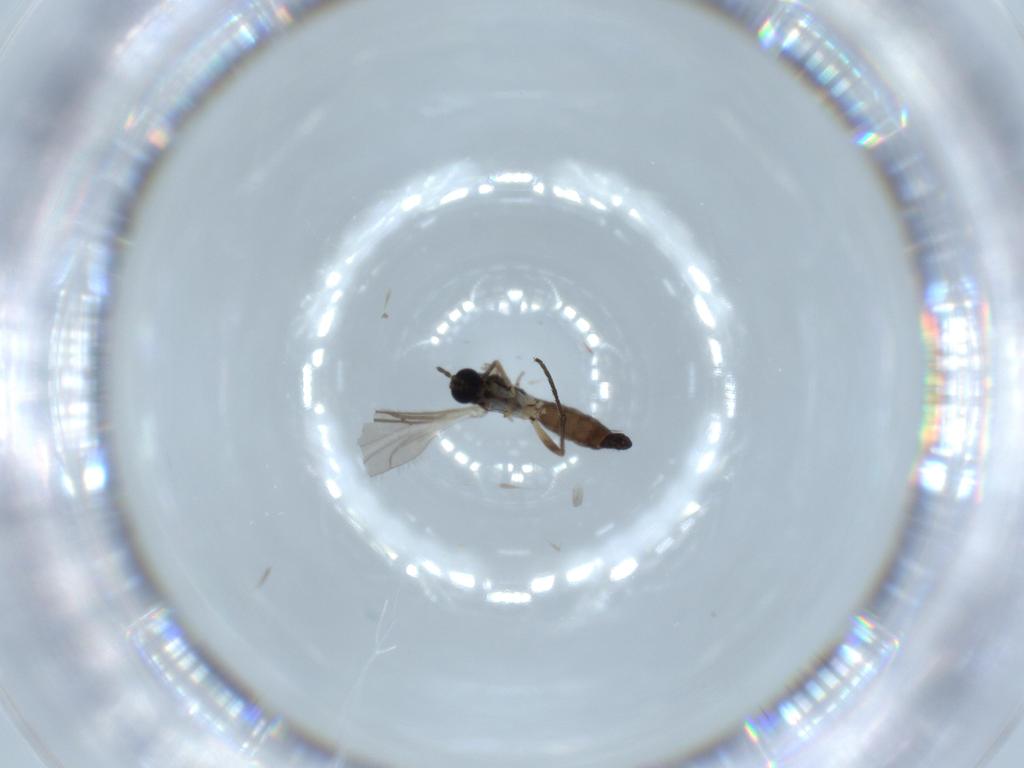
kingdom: Animalia
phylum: Arthropoda
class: Insecta
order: Diptera
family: Sciaridae
